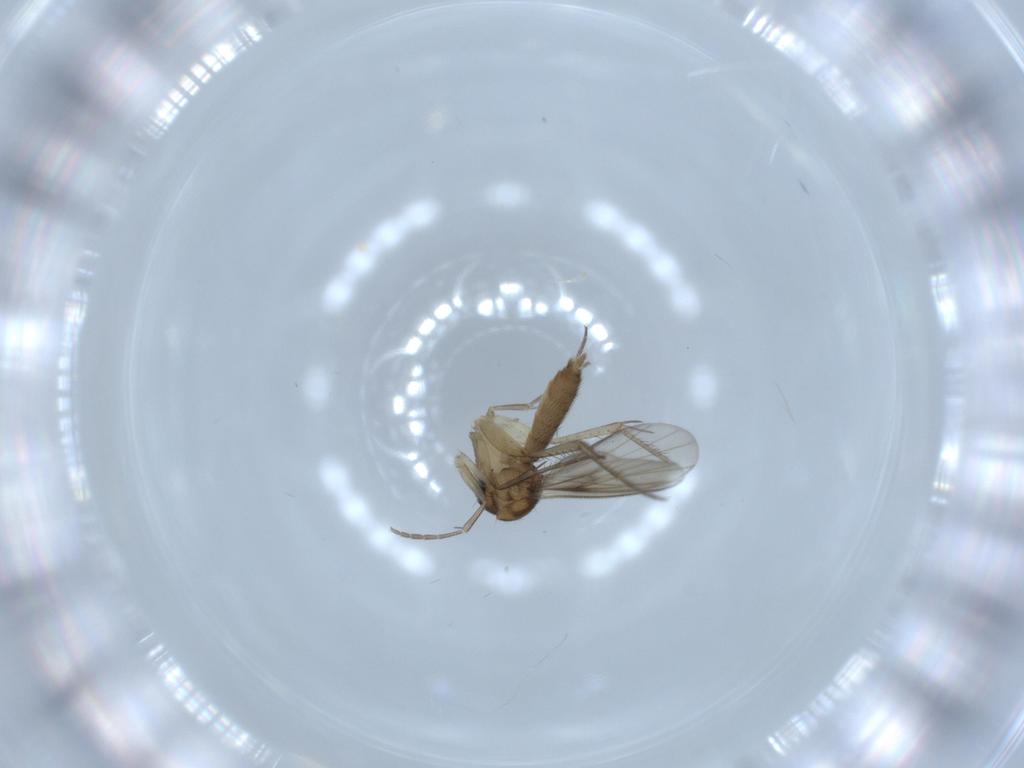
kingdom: Animalia
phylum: Arthropoda
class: Insecta
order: Diptera
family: Mycetophilidae
